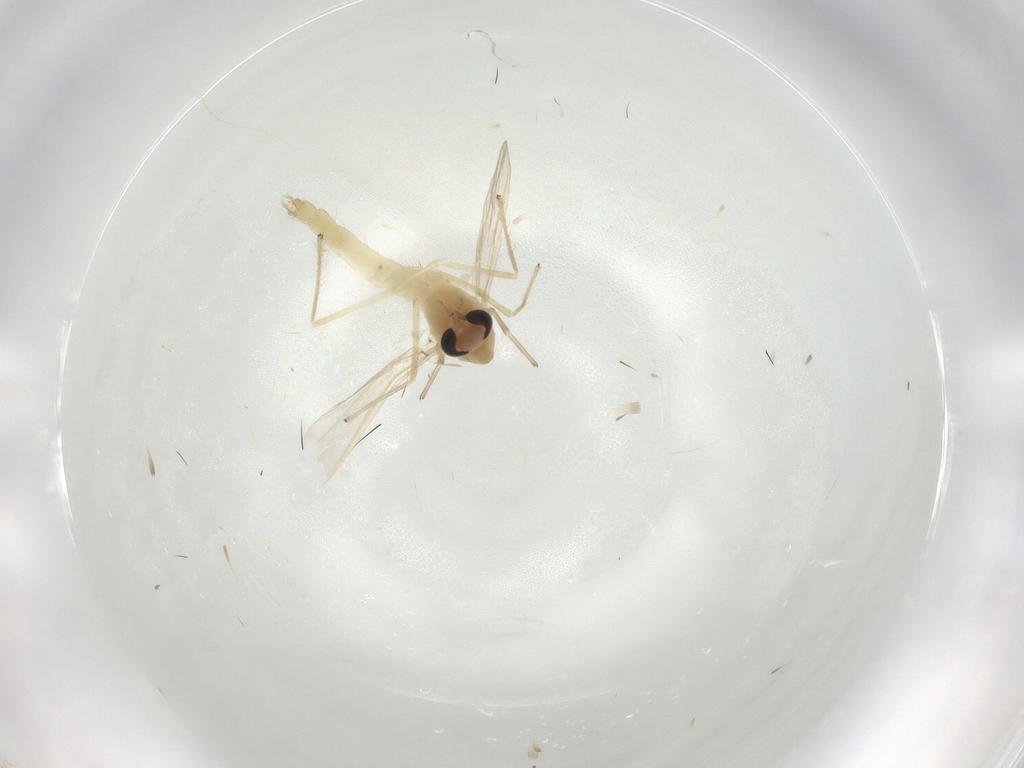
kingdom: Animalia
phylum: Arthropoda
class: Insecta
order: Diptera
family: Chironomidae
